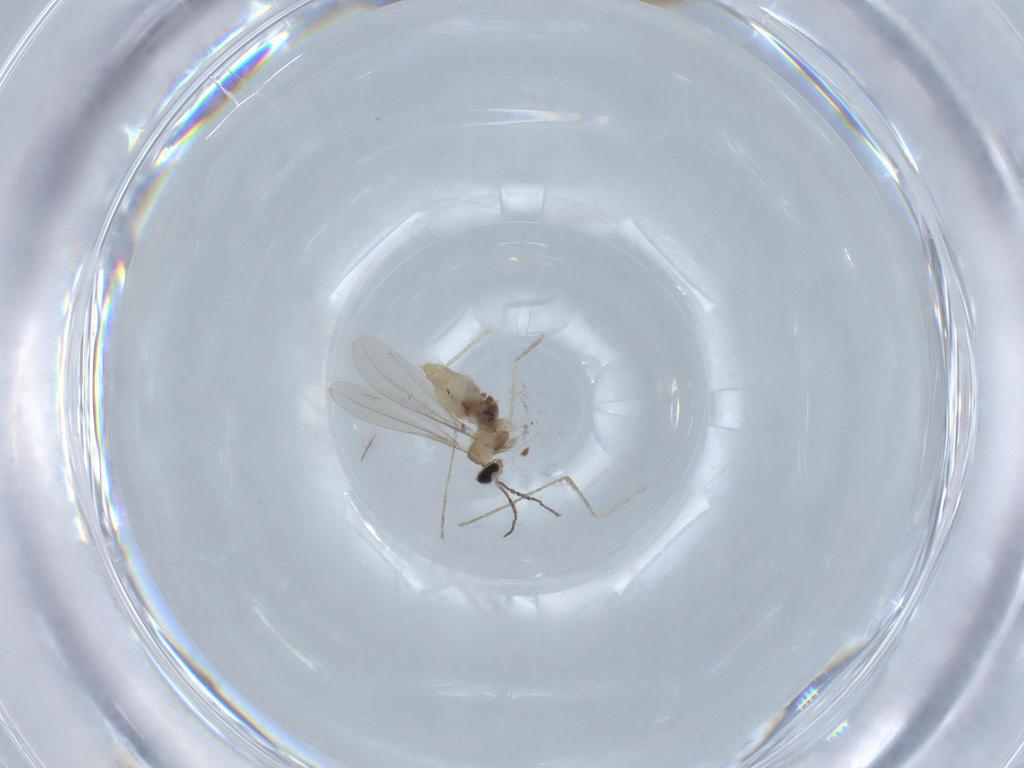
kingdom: Animalia
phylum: Arthropoda
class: Insecta
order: Diptera
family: Cecidomyiidae
